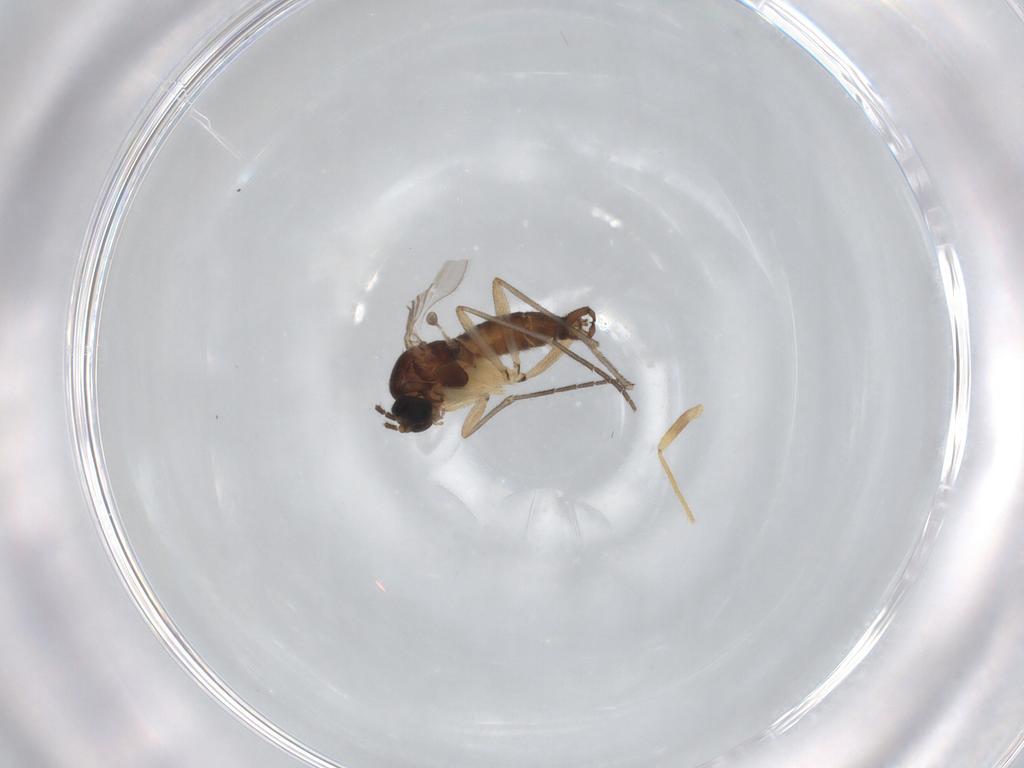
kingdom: Animalia
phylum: Arthropoda
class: Insecta
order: Diptera
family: Sciaridae
